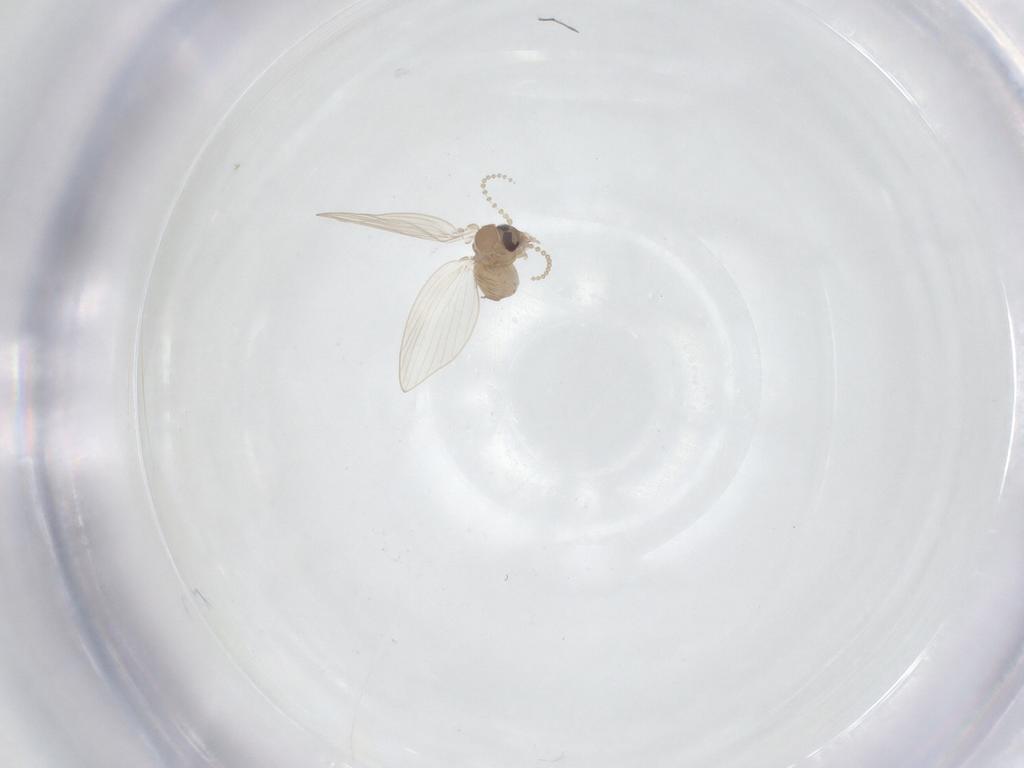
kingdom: Animalia
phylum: Arthropoda
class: Insecta
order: Diptera
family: Psychodidae
